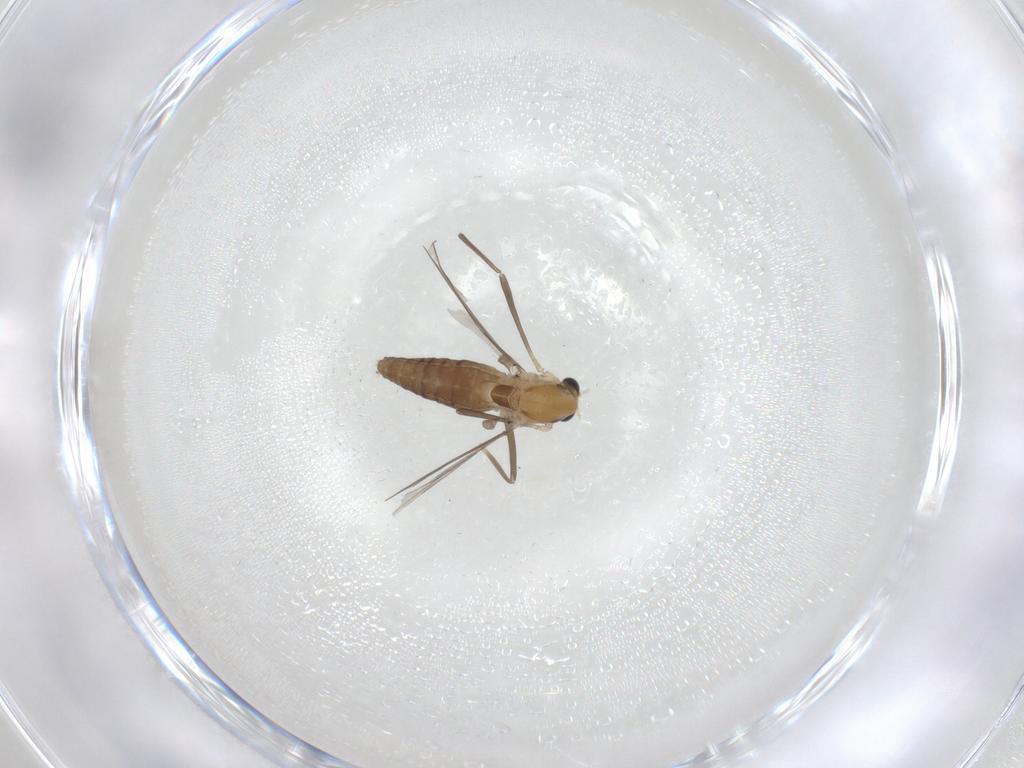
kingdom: Animalia
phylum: Arthropoda
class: Insecta
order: Diptera
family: Chironomidae
